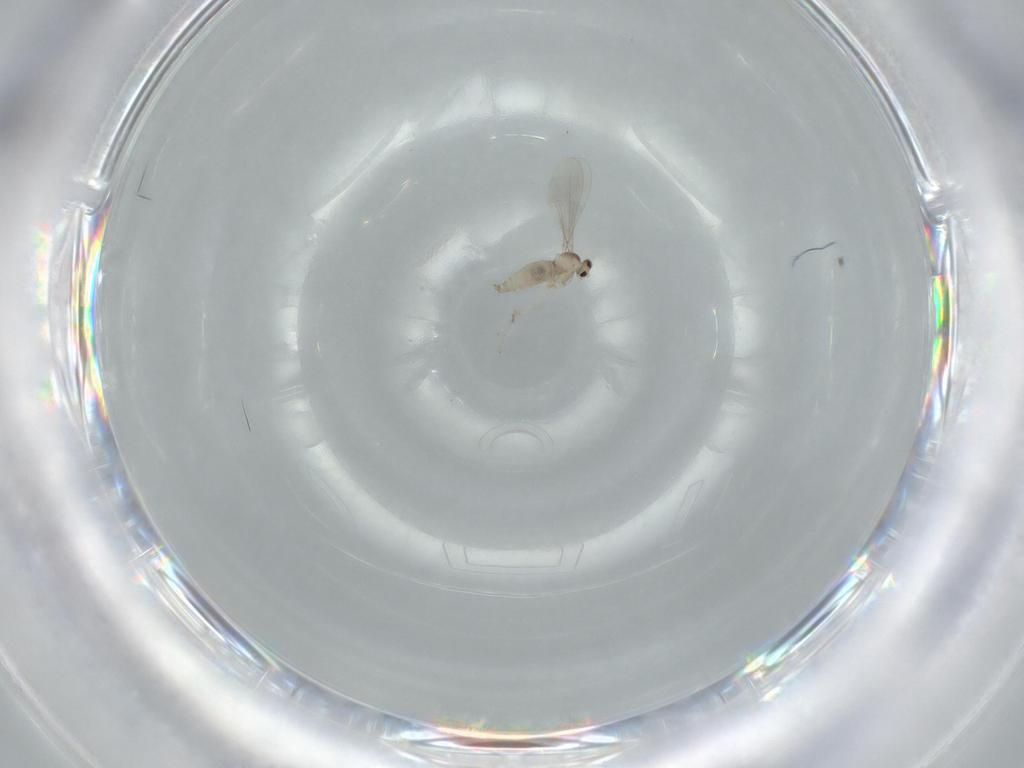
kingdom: Animalia
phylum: Arthropoda
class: Insecta
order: Diptera
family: Cecidomyiidae
